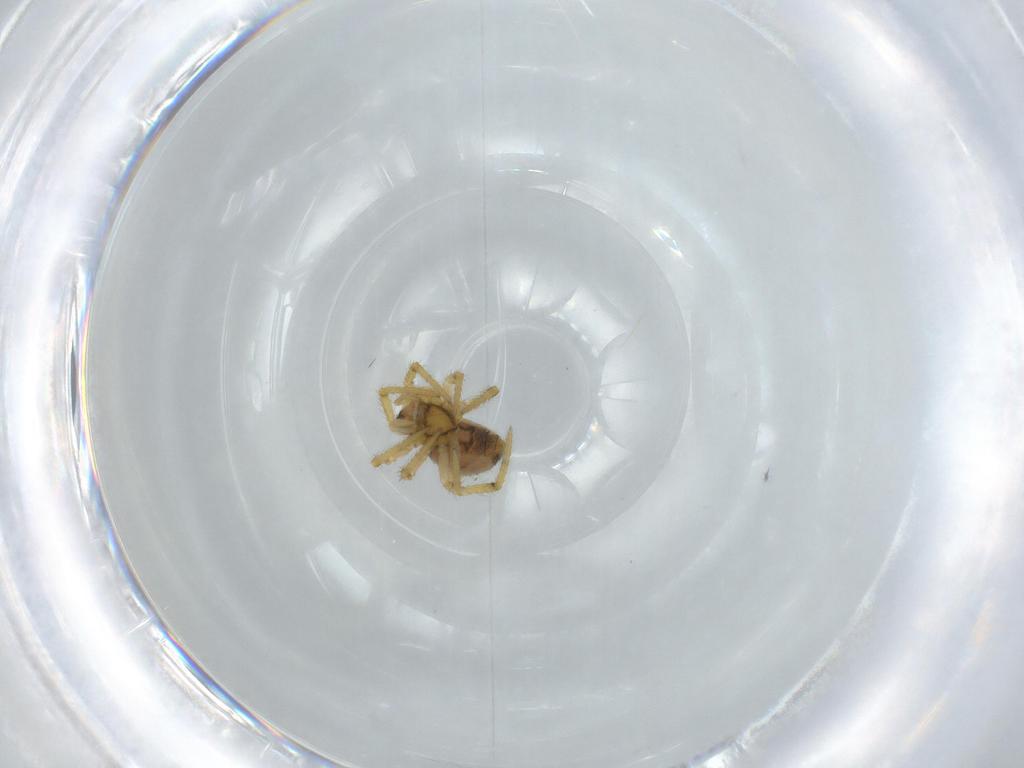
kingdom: Animalia
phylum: Arthropoda
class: Arachnida
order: Araneae
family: Theridiidae
